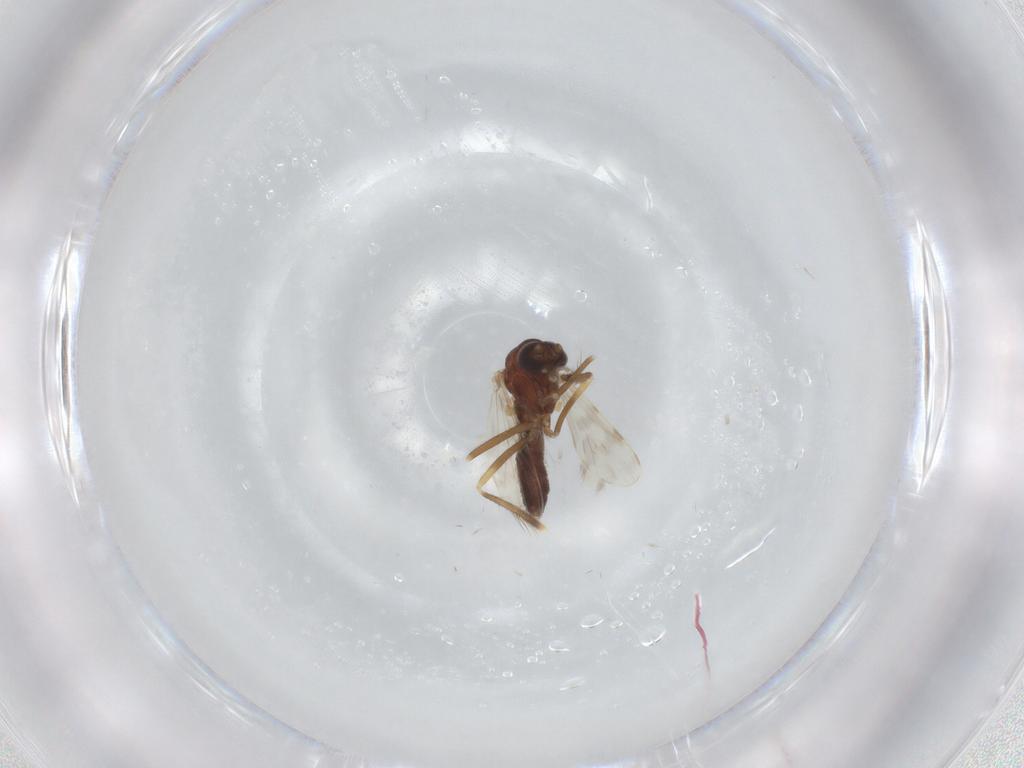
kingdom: Animalia
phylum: Arthropoda
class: Insecta
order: Diptera
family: Corethrellidae
